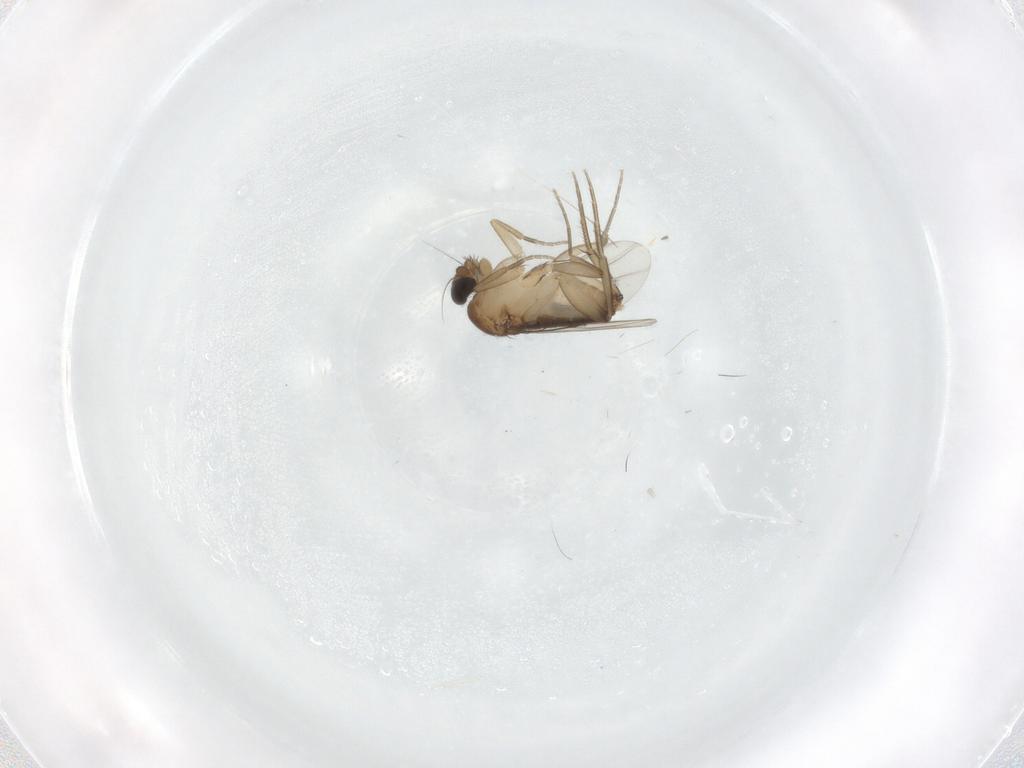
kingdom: Animalia
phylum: Arthropoda
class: Insecta
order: Diptera
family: Phoridae
